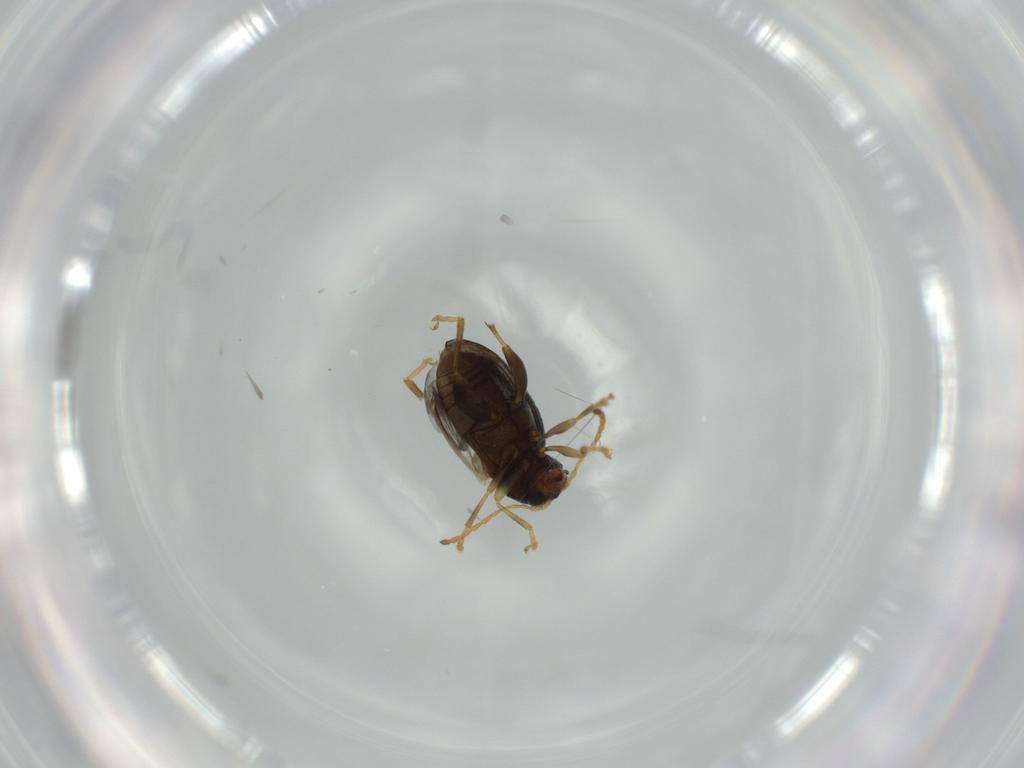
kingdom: Animalia
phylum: Arthropoda
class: Insecta
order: Coleoptera
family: Chrysomelidae
